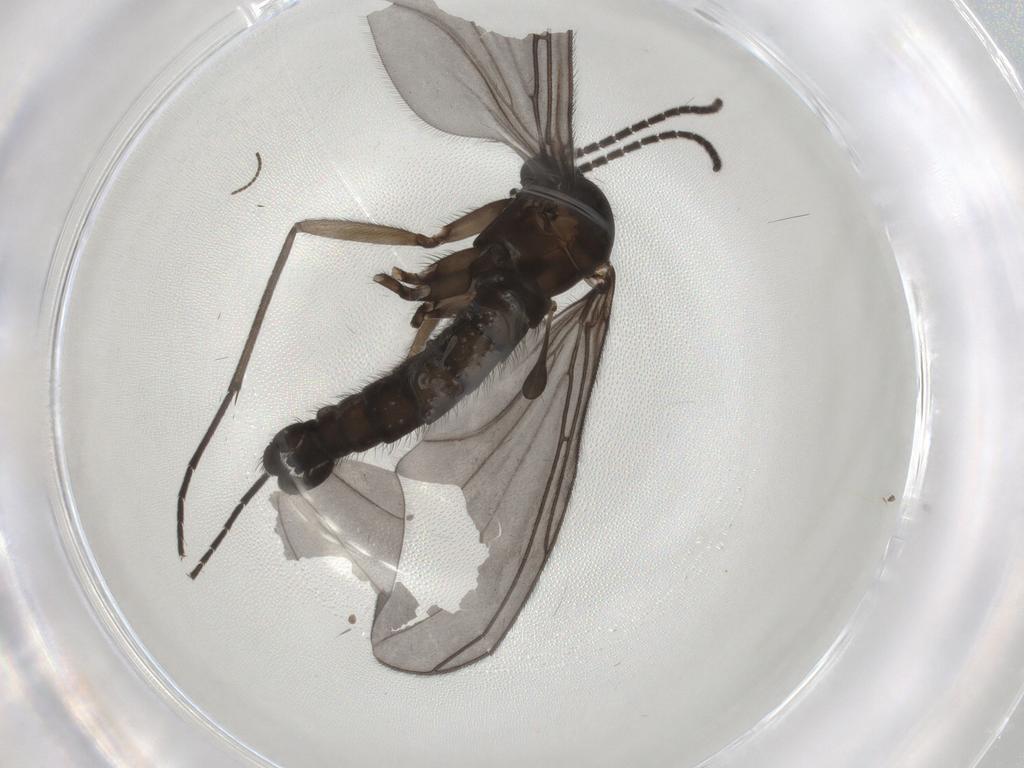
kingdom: Animalia
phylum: Arthropoda
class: Insecta
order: Diptera
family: Sciaridae
